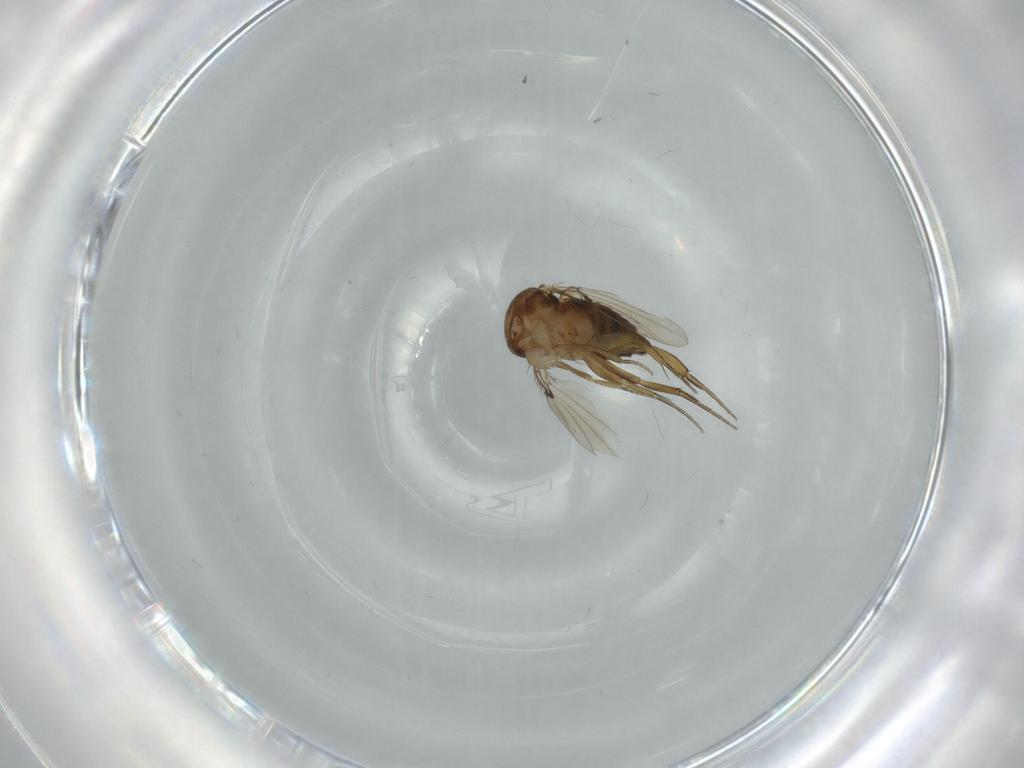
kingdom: Animalia
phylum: Arthropoda
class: Insecta
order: Diptera
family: Phoridae
